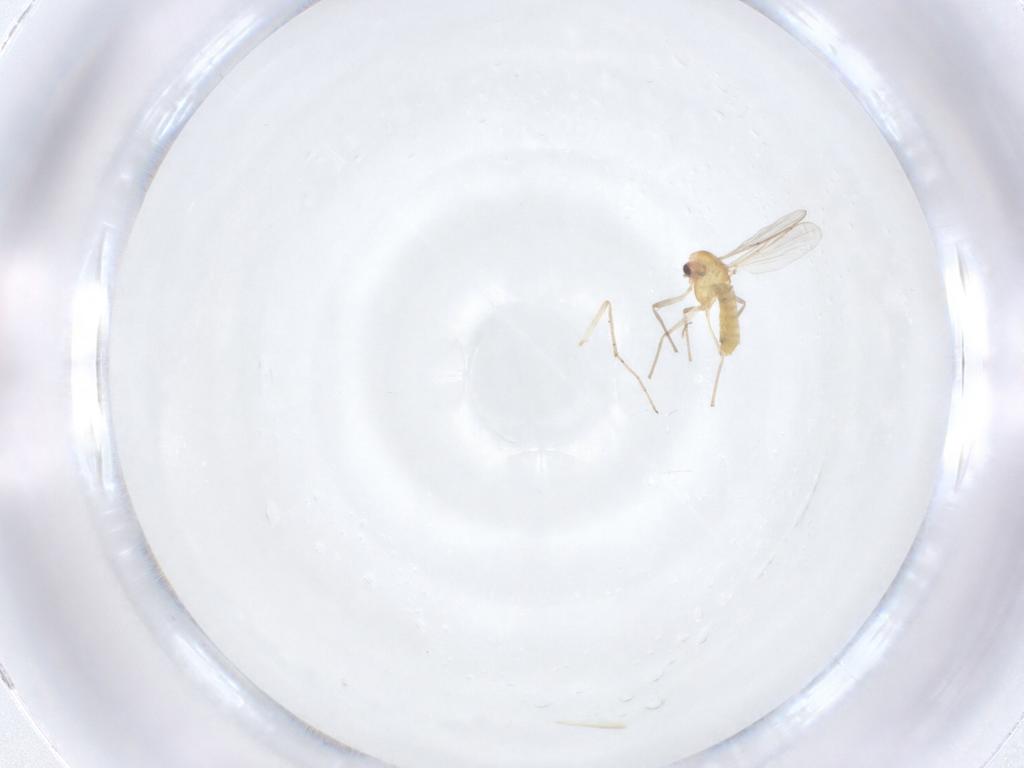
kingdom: Animalia
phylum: Arthropoda
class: Insecta
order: Diptera
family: Chironomidae
